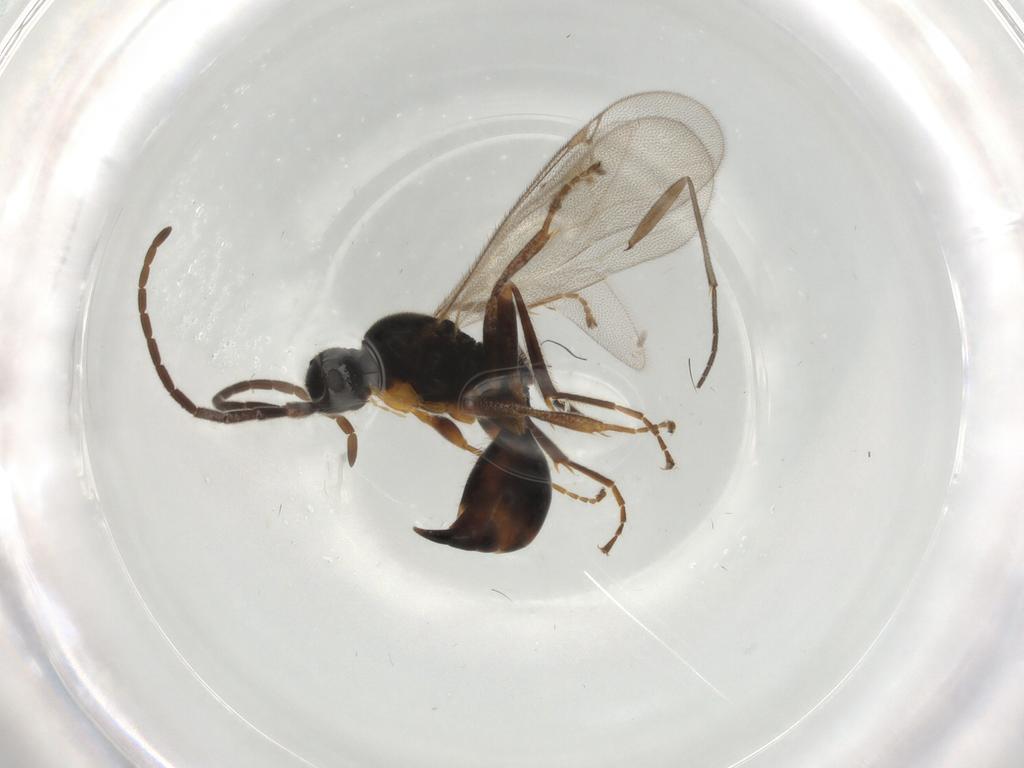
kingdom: Animalia
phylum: Arthropoda
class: Insecta
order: Hymenoptera
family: Proctotrupidae
